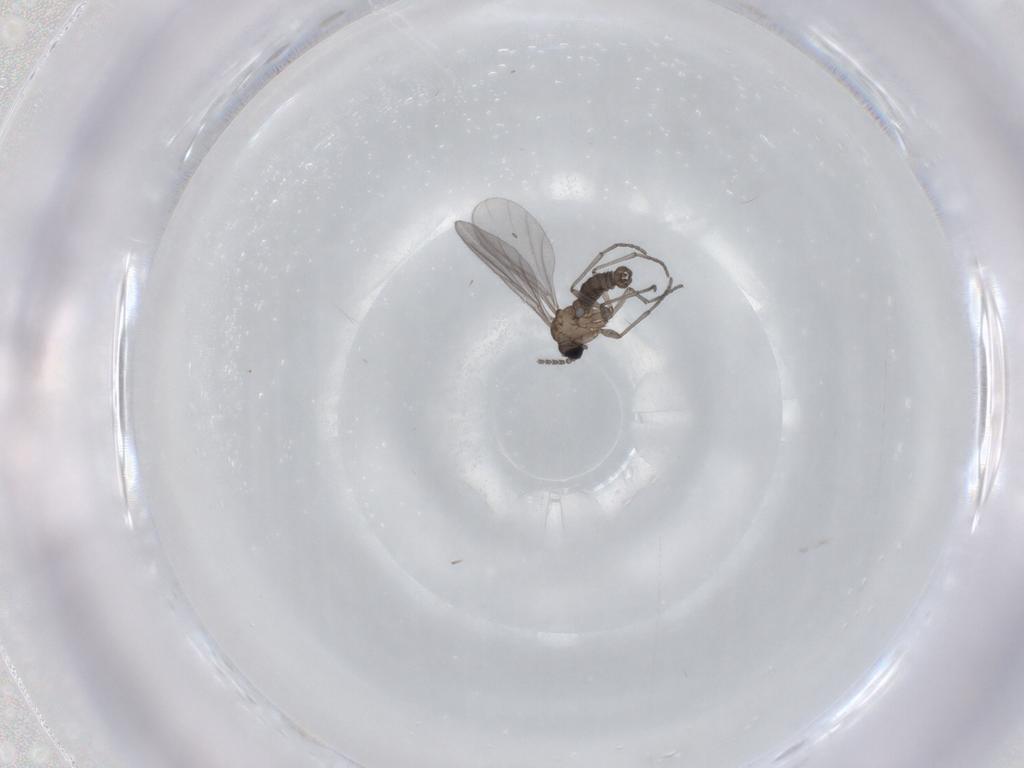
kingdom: Animalia
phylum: Arthropoda
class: Insecta
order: Diptera
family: Sciaridae
